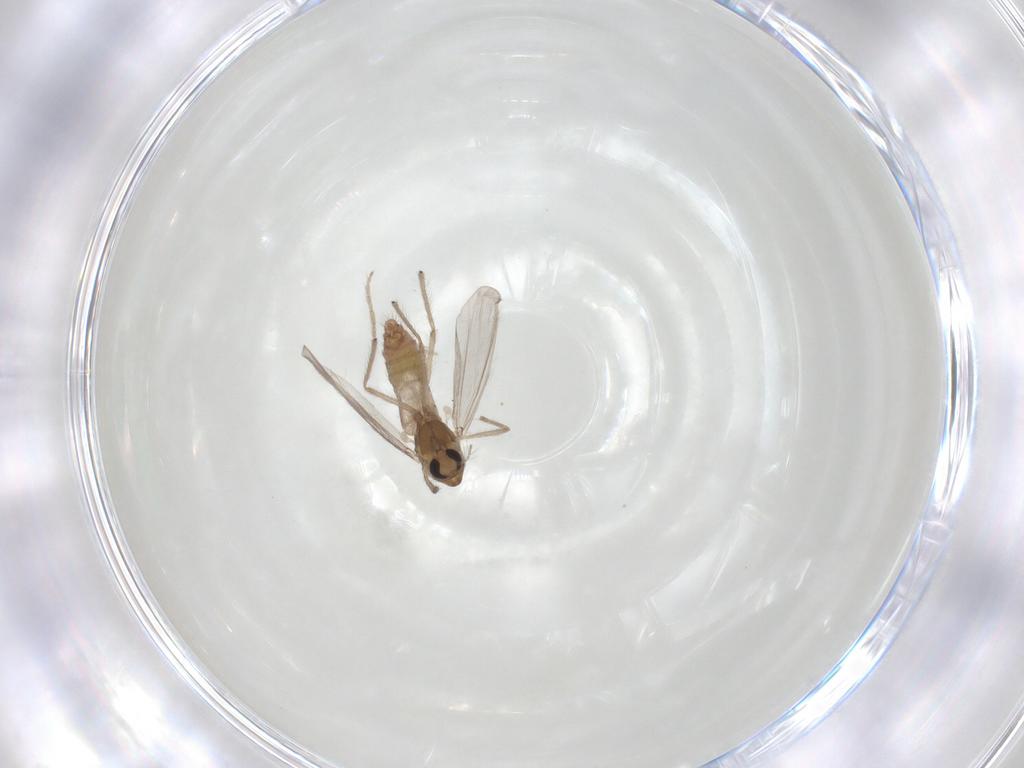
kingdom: Animalia
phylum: Arthropoda
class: Insecta
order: Diptera
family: Chironomidae
